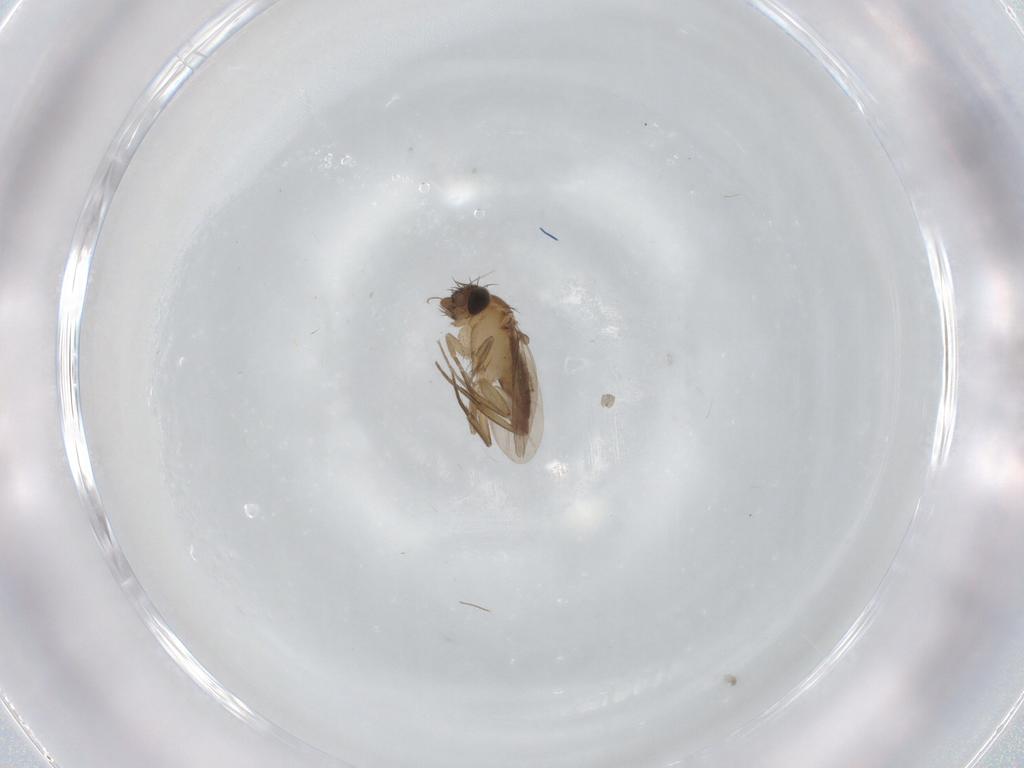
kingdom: Animalia
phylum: Arthropoda
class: Insecta
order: Diptera
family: Phoridae
